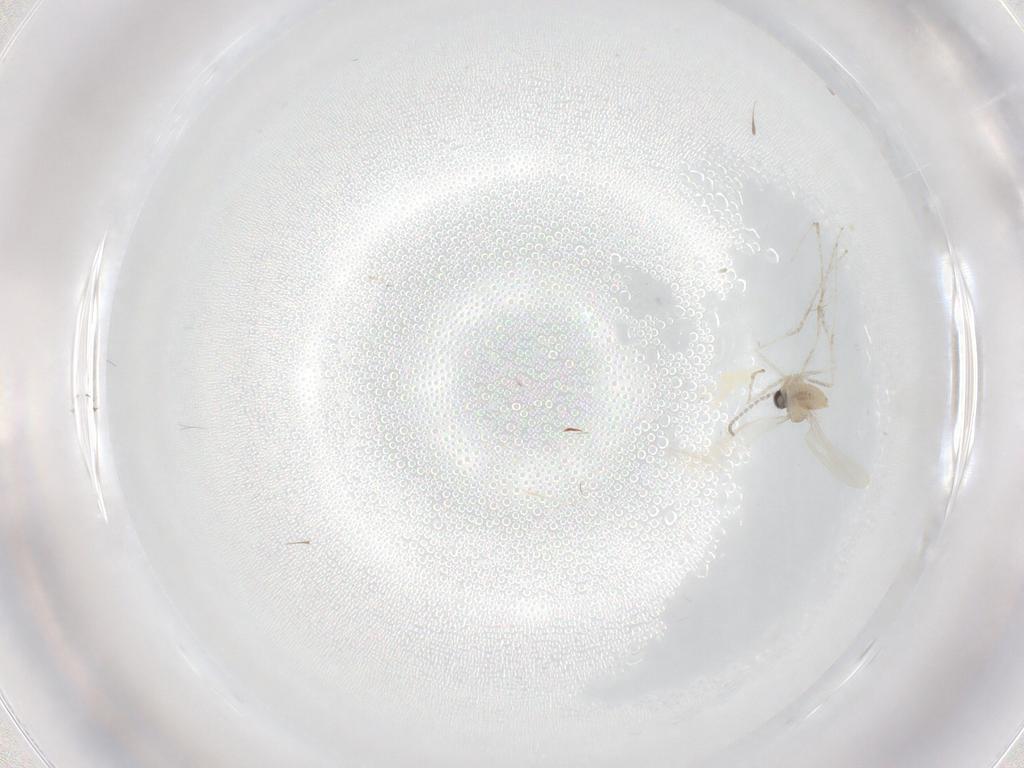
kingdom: Animalia
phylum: Arthropoda
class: Insecta
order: Diptera
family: Cecidomyiidae
